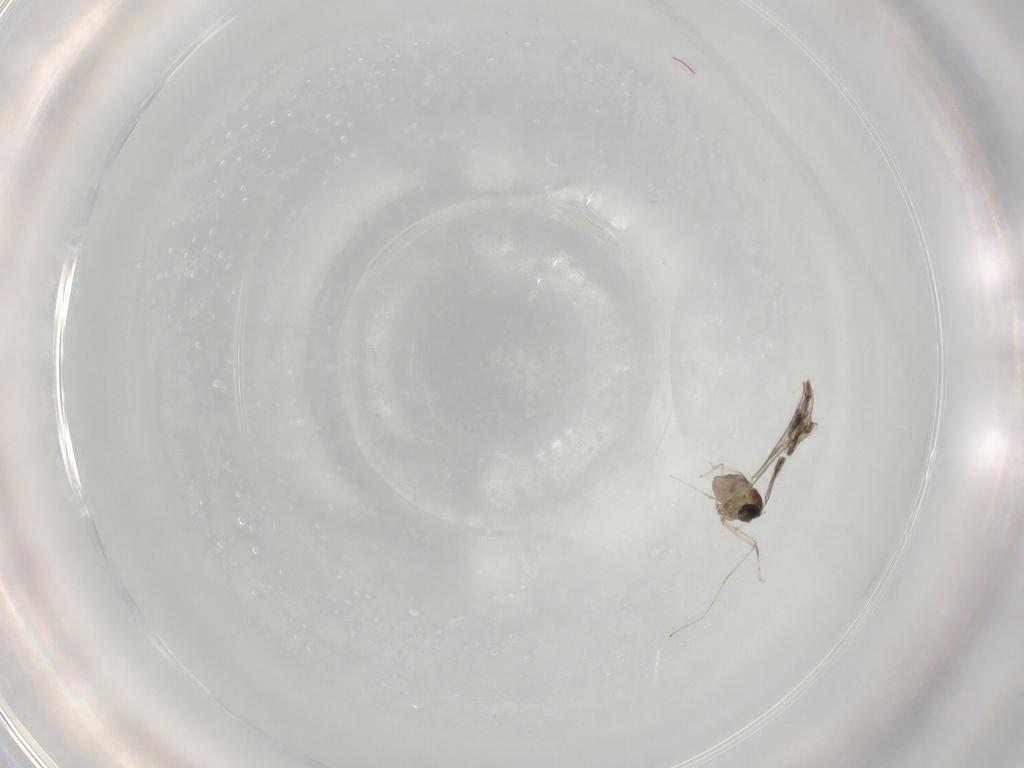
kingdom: Animalia
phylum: Arthropoda
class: Insecta
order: Diptera
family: Cecidomyiidae
